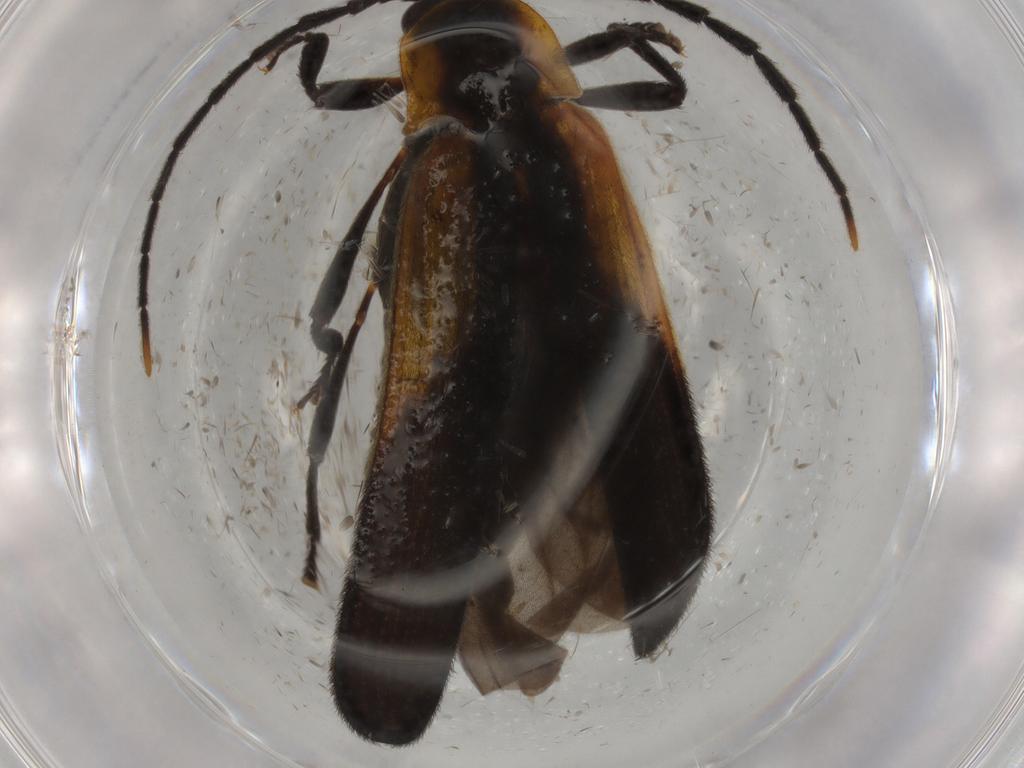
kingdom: Animalia
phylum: Arthropoda
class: Insecta
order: Coleoptera
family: Lycidae
